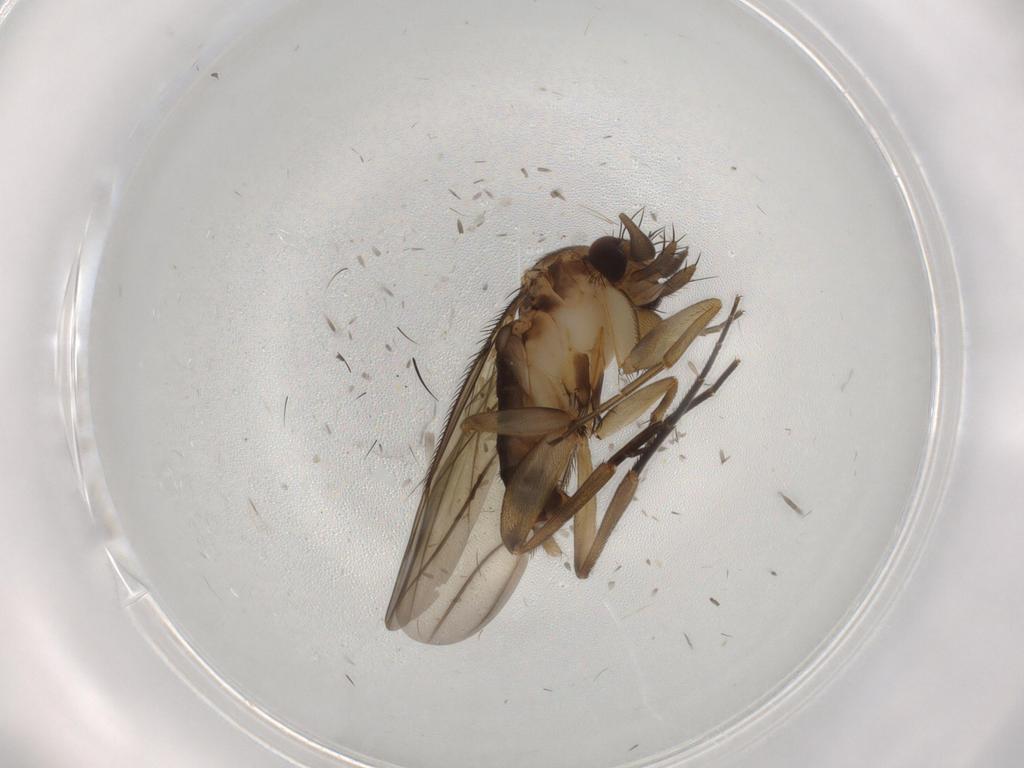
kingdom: Animalia
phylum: Arthropoda
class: Insecta
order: Diptera
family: Phoridae
